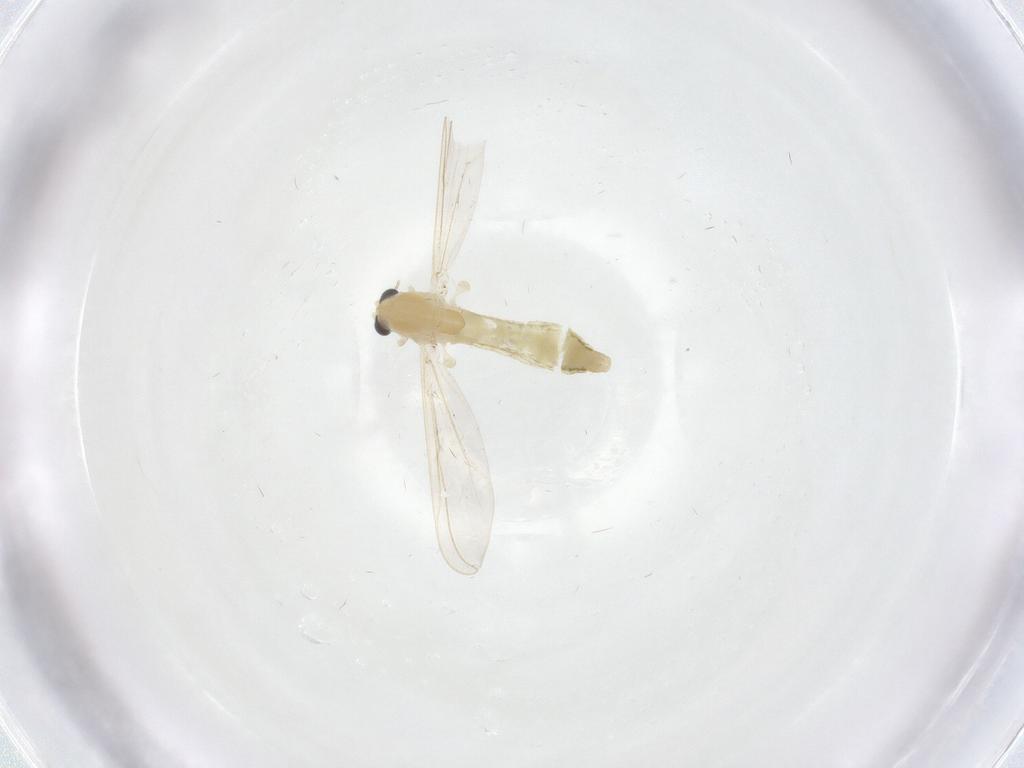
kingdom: Animalia
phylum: Arthropoda
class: Insecta
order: Diptera
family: Chironomidae
